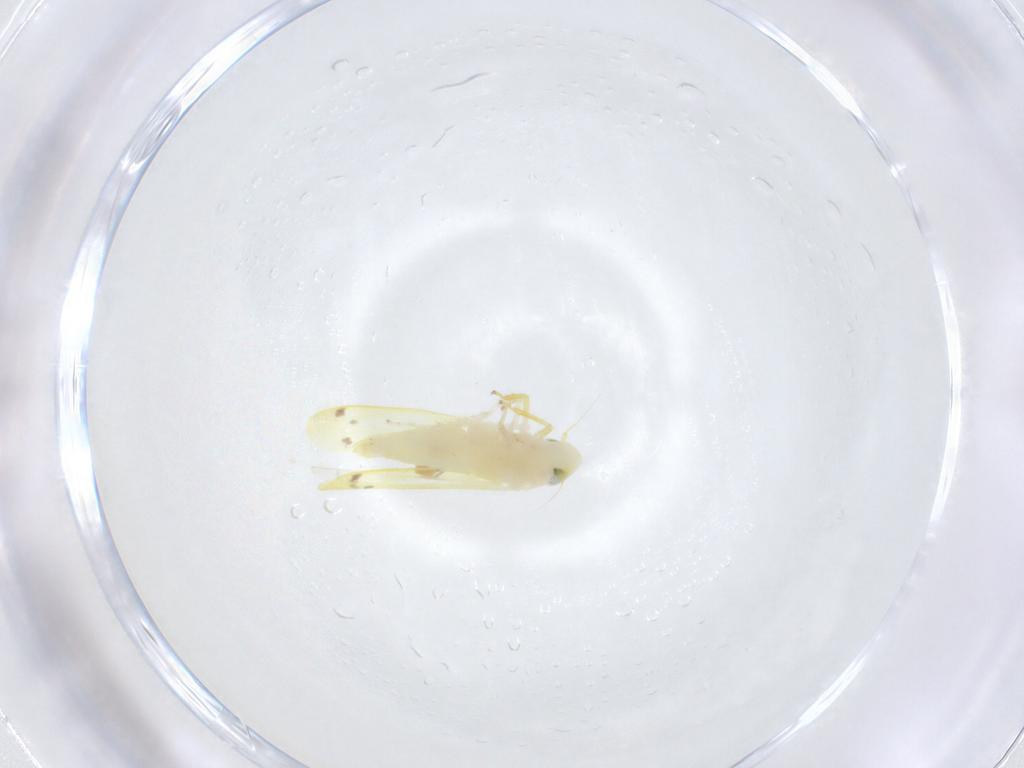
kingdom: Animalia
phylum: Arthropoda
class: Insecta
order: Hemiptera
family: Cicadellidae
